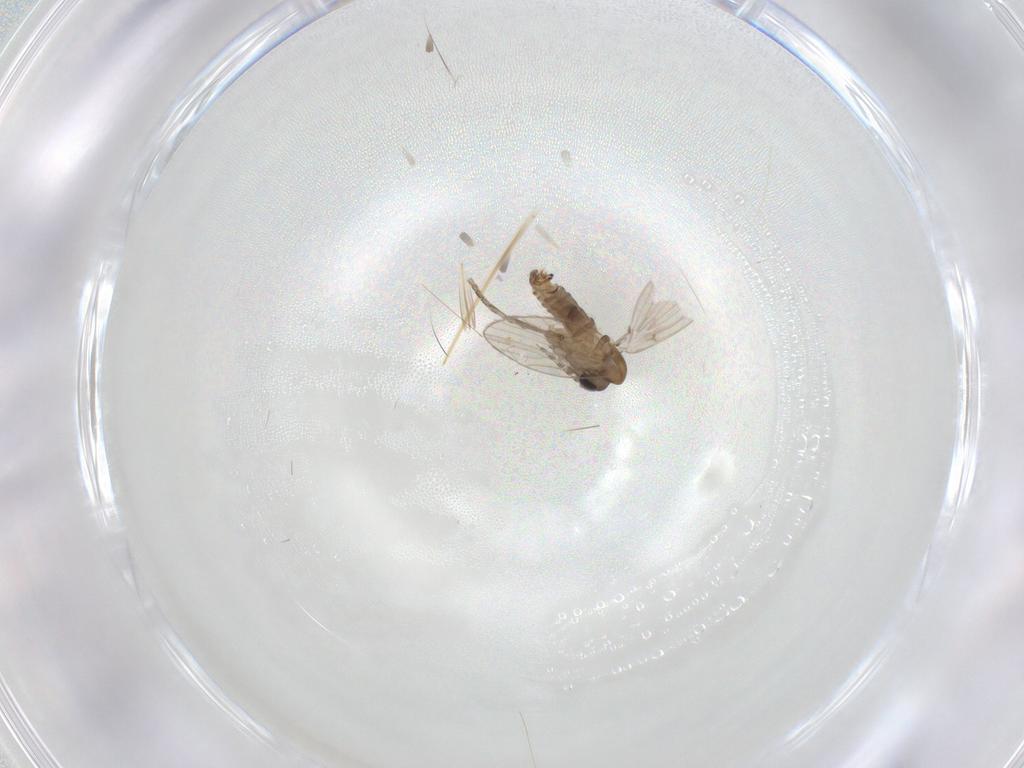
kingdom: Animalia
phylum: Arthropoda
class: Insecta
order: Diptera
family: Psychodidae
